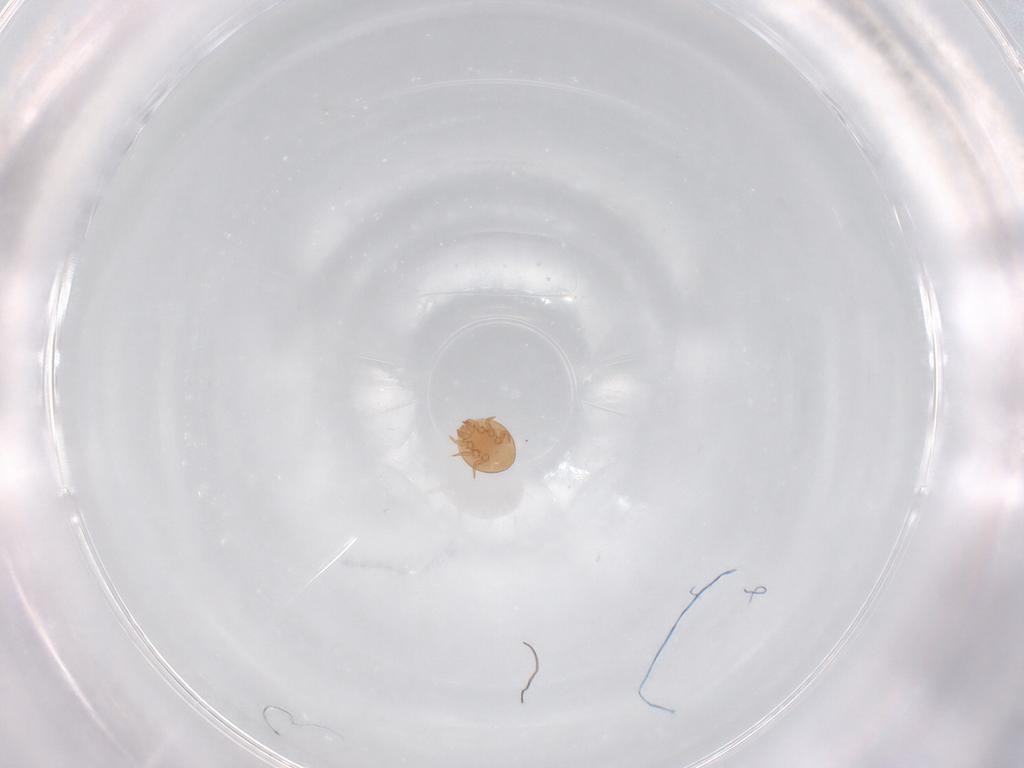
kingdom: Animalia
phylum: Arthropoda
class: Arachnida
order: Mesostigmata
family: Trematuridae
